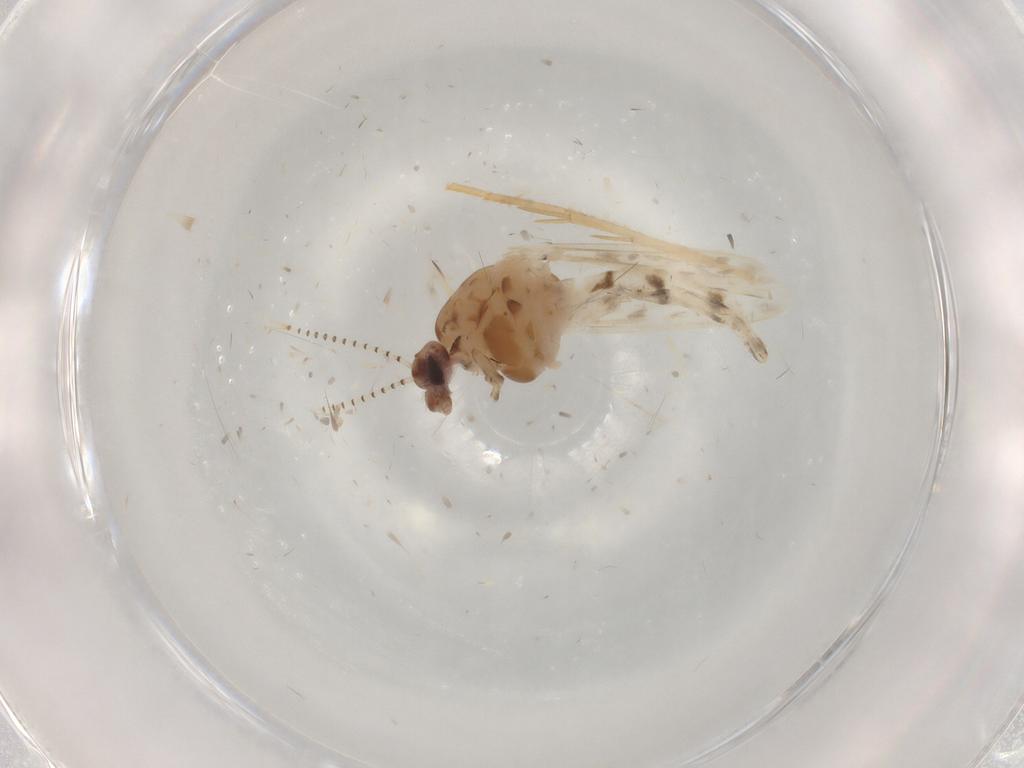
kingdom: Animalia
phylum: Arthropoda
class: Insecta
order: Diptera
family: Chaoboridae
